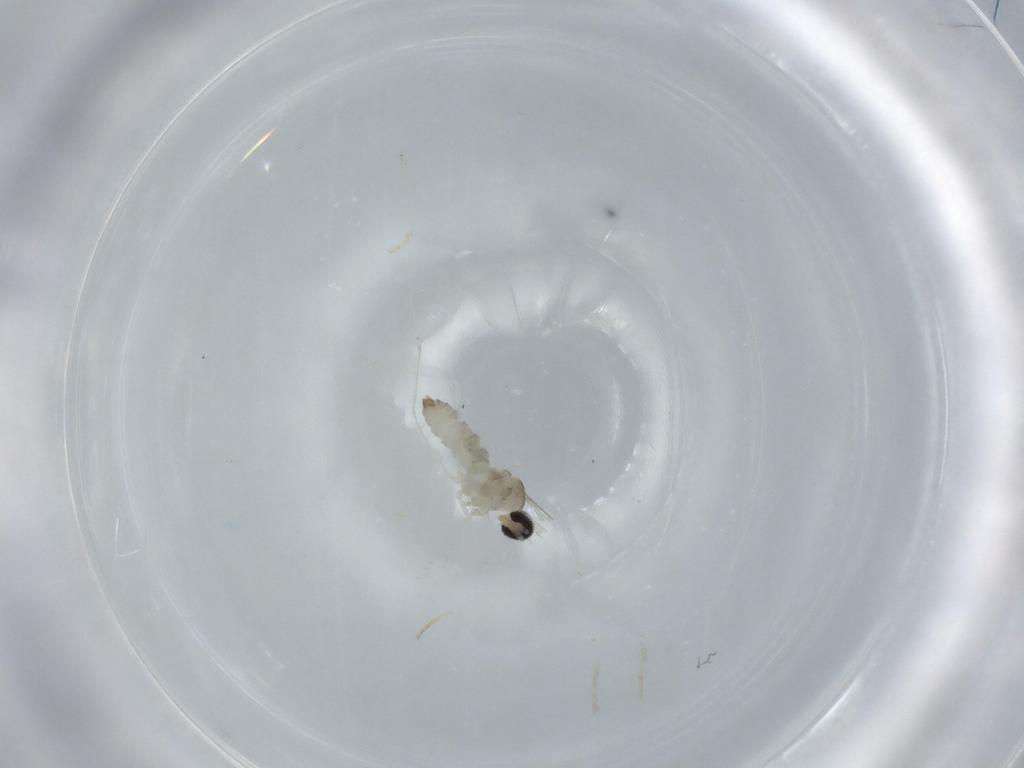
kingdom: Animalia
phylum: Arthropoda
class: Insecta
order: Diptera
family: Cecidomyiidae
